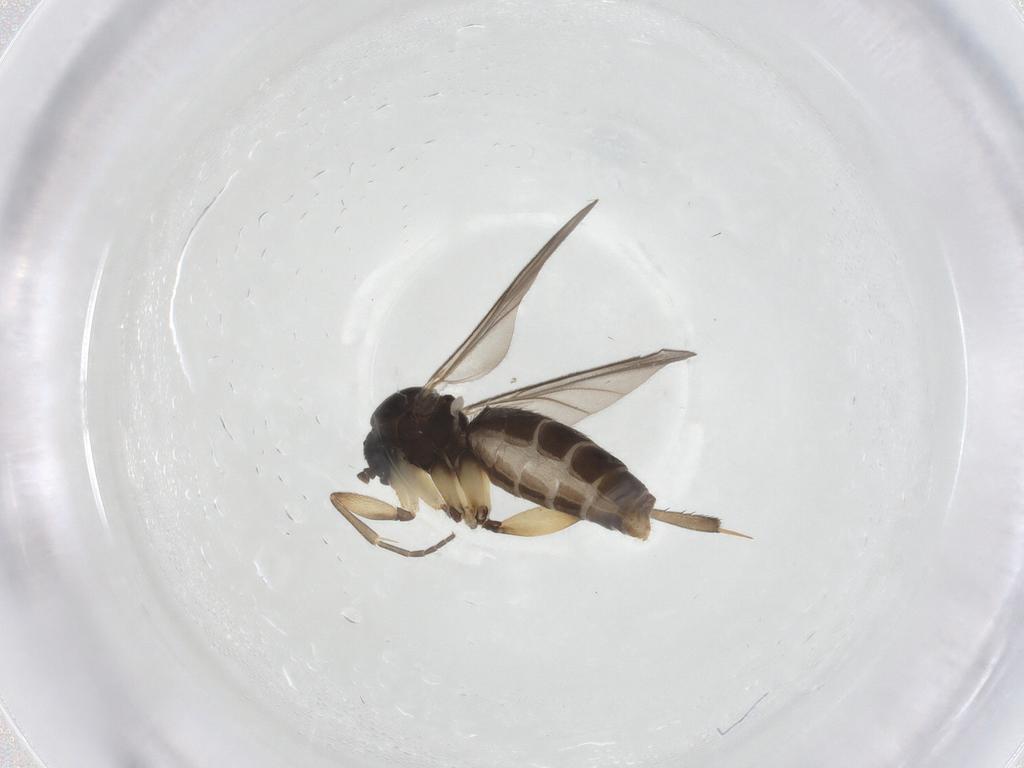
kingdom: Animalia
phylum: Arthropoda
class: Insecta
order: Diptera
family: Mycetophilidae
